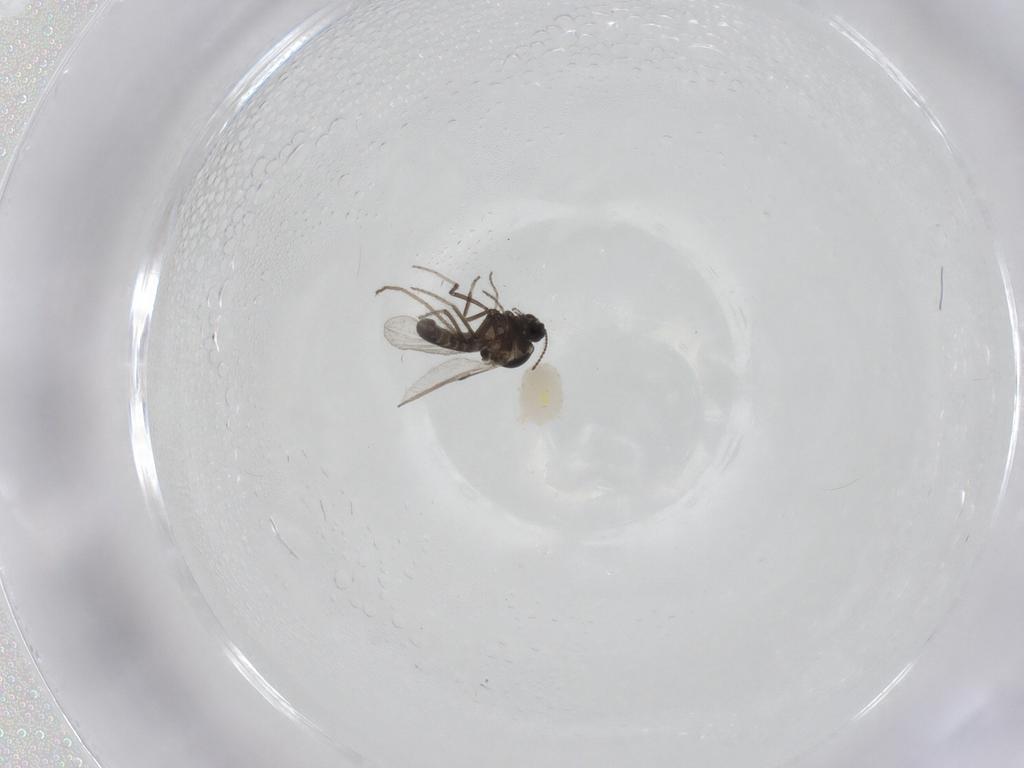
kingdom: Animalia
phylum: Arthropoda
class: Insecta
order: Diptera
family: Ceratopogonidae
